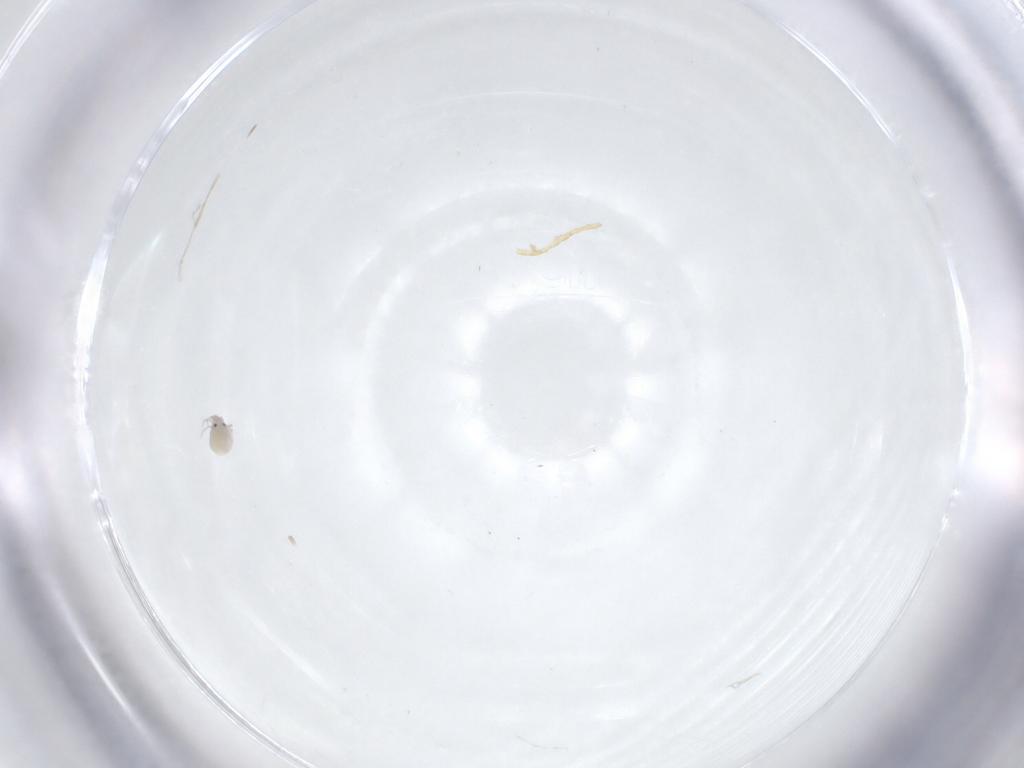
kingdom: Animalia
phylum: Arthropoda
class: Arachnida
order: Trombidiformes
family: Pionidae
